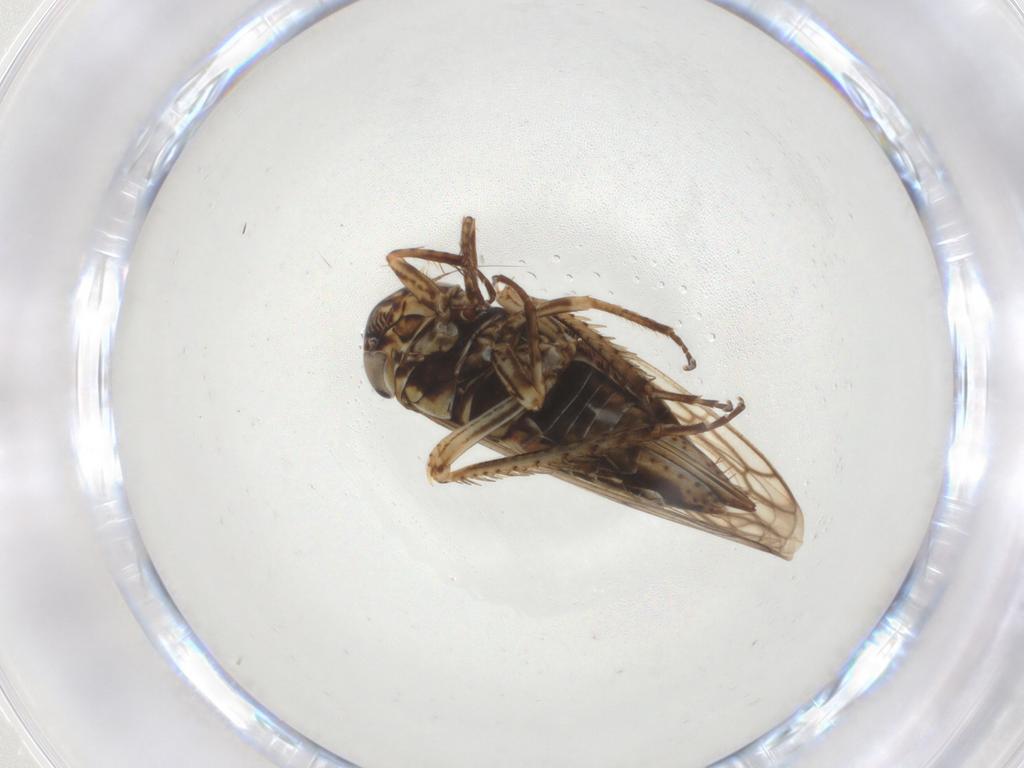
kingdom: Animalia
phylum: Arthropoda
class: Insecta
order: Hemiptera
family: Cicadellidae
